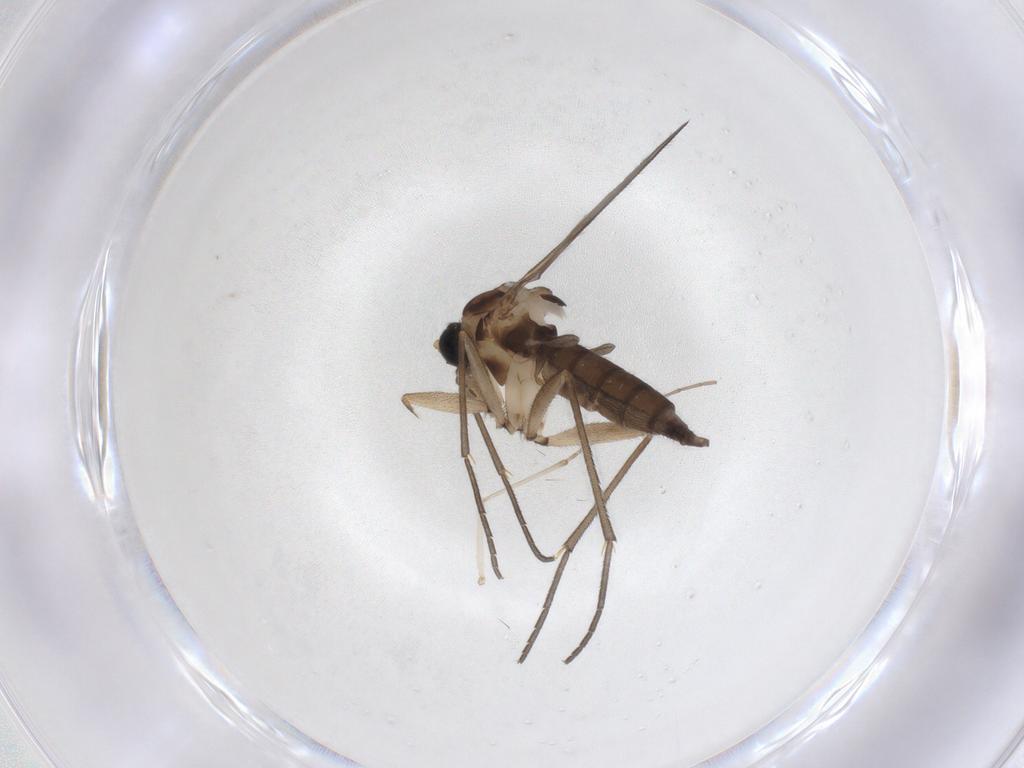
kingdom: Animalia
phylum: Arthropoda
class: Insecta
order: Diptera
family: Sciaridae
